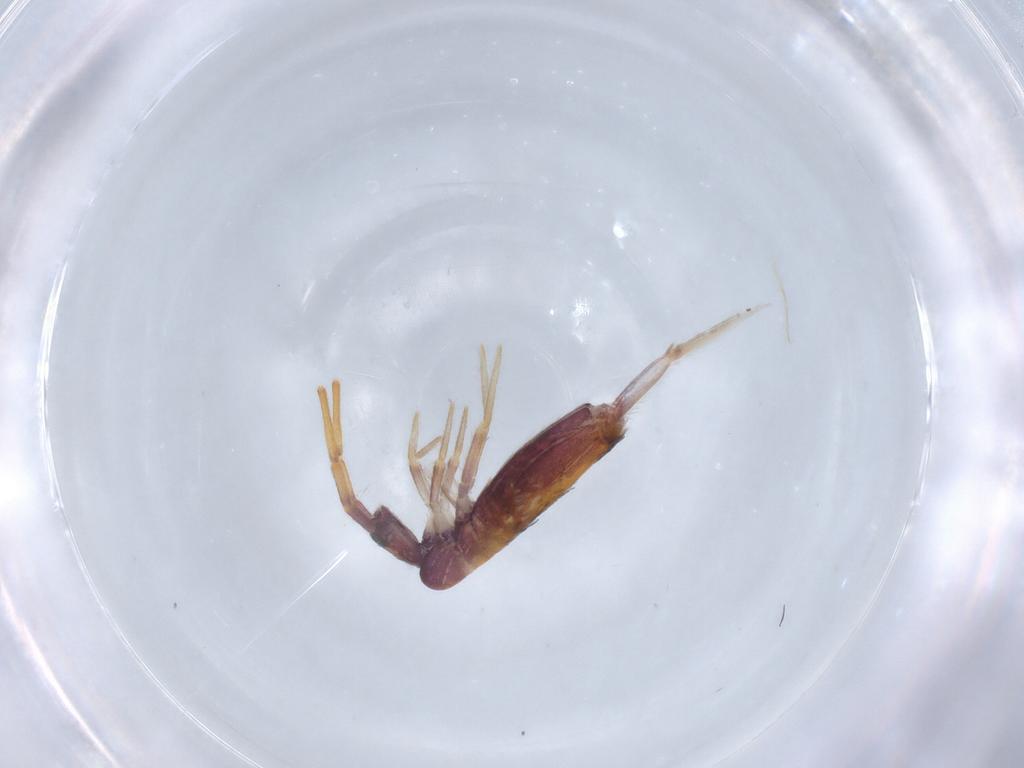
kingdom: Animalia
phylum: Arthropoda
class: Collembola
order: Entomobryomorpha
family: Entomobryidae
